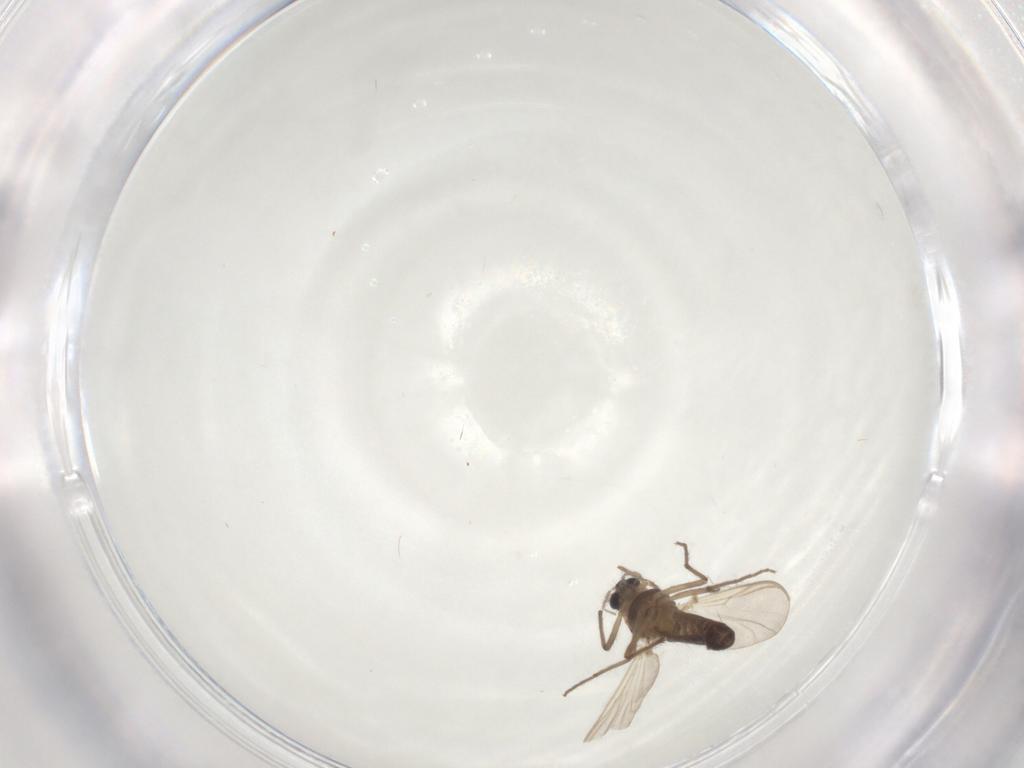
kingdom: Animalia
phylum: Arthropoda
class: Insecta
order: Diptera
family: Chironomidae
